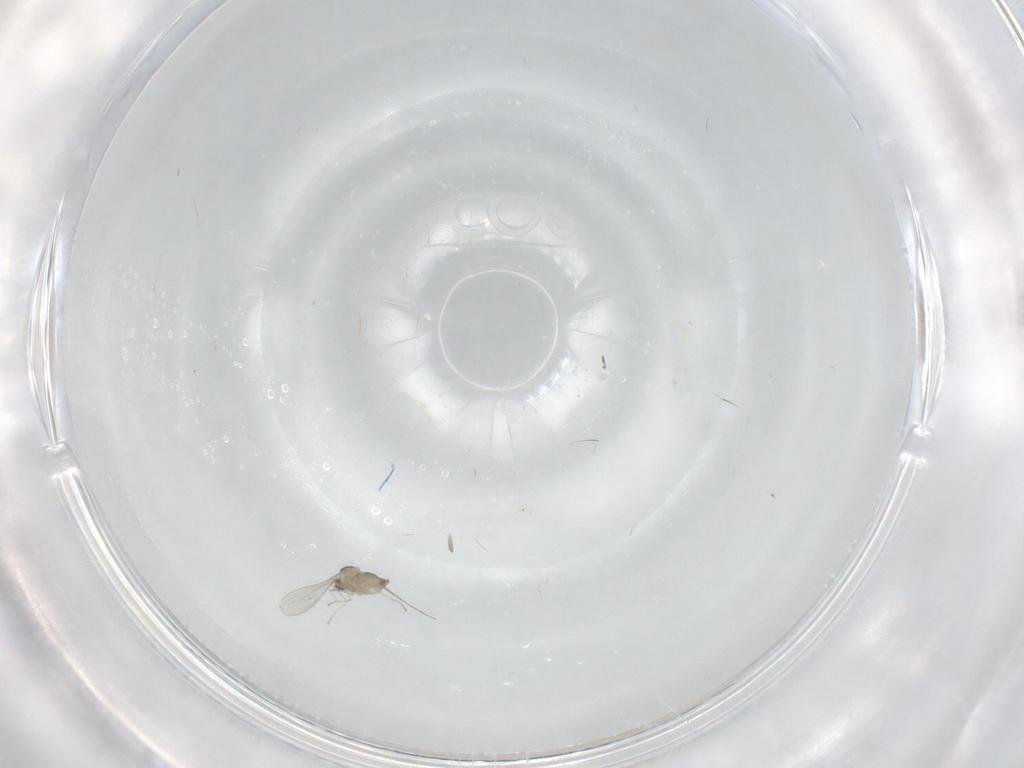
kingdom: Animalia
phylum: Arthropoda
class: Insecta
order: Diptera
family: Cecidomyiidae
